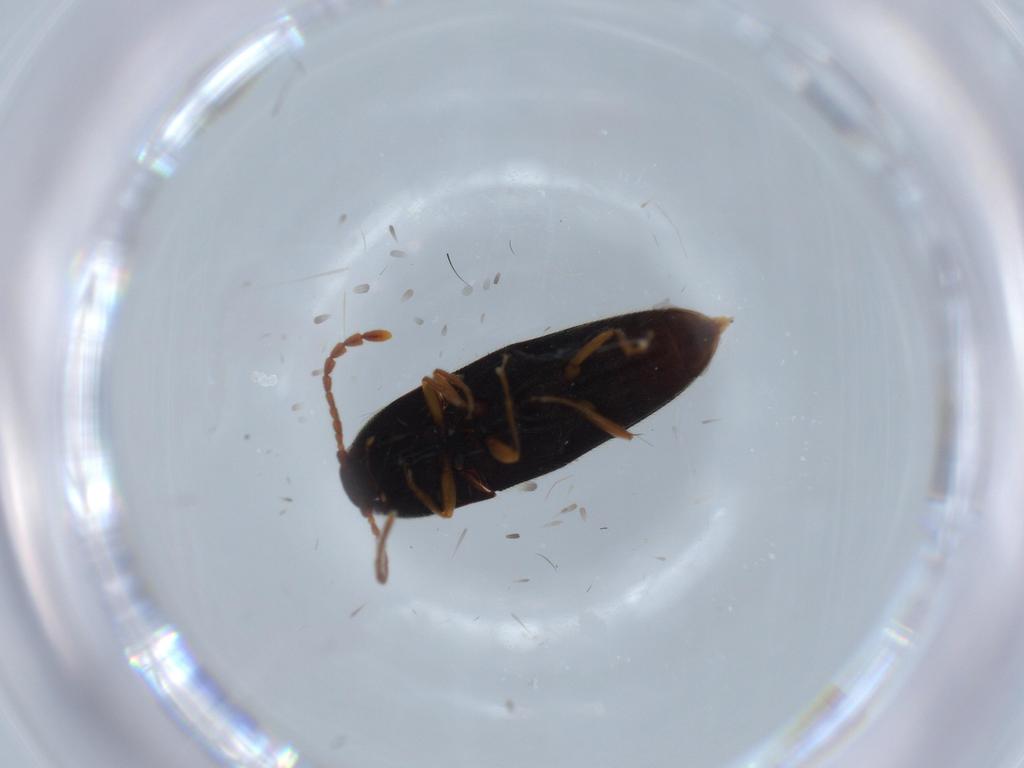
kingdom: Animalia
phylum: Arthropoda
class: Insecta
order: Coleoptera
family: Elateridae
